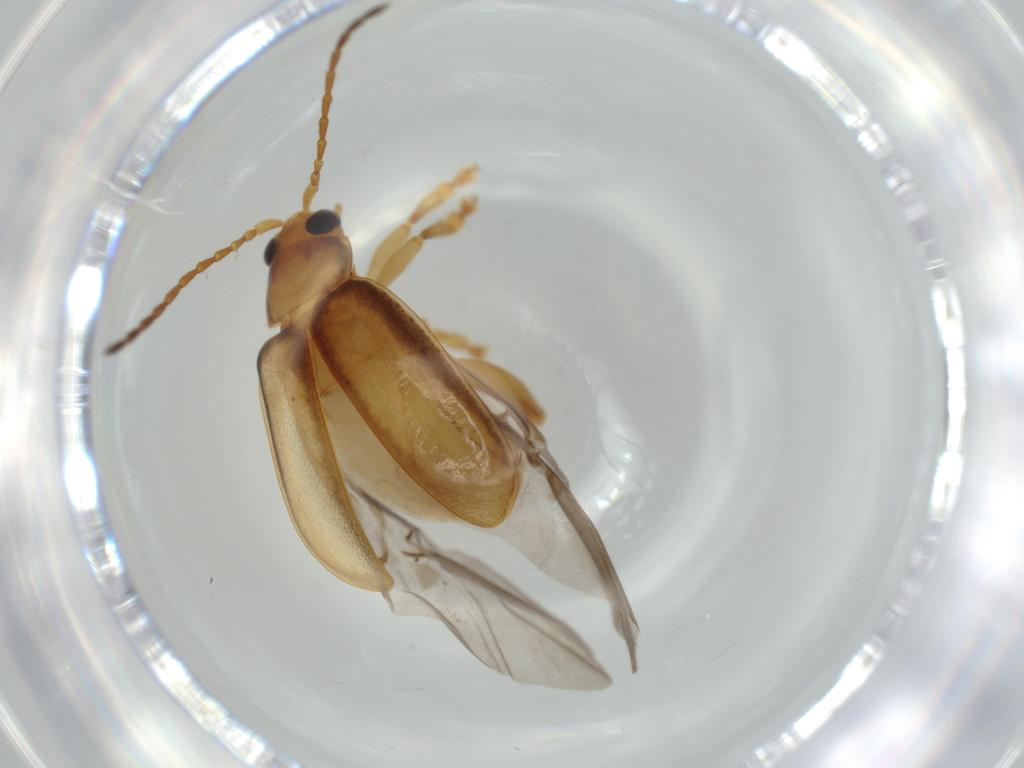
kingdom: Animalia
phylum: Arthropoda
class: Insecta
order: Coleoptera
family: Chrysomelidae
